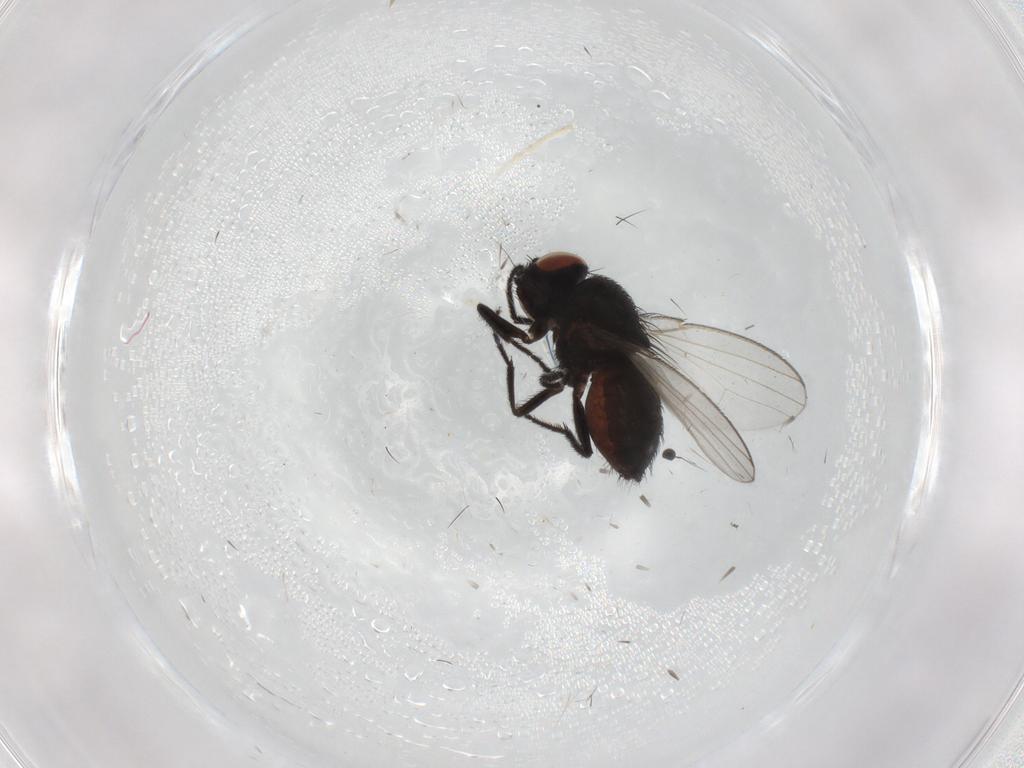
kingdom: Animalia
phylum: Arthropoda
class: Insecta
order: Diptera
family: Milichiidae
